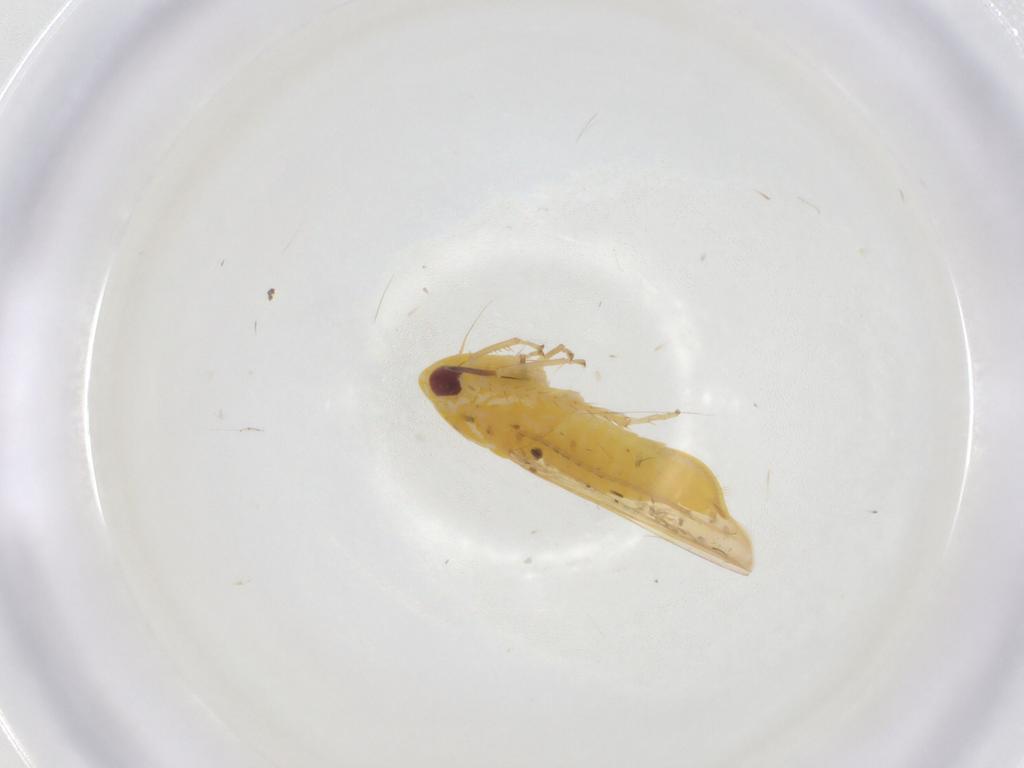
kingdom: Animalia
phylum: Arthropoda
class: Insecta
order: Hemiptera
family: Cicadellidae
